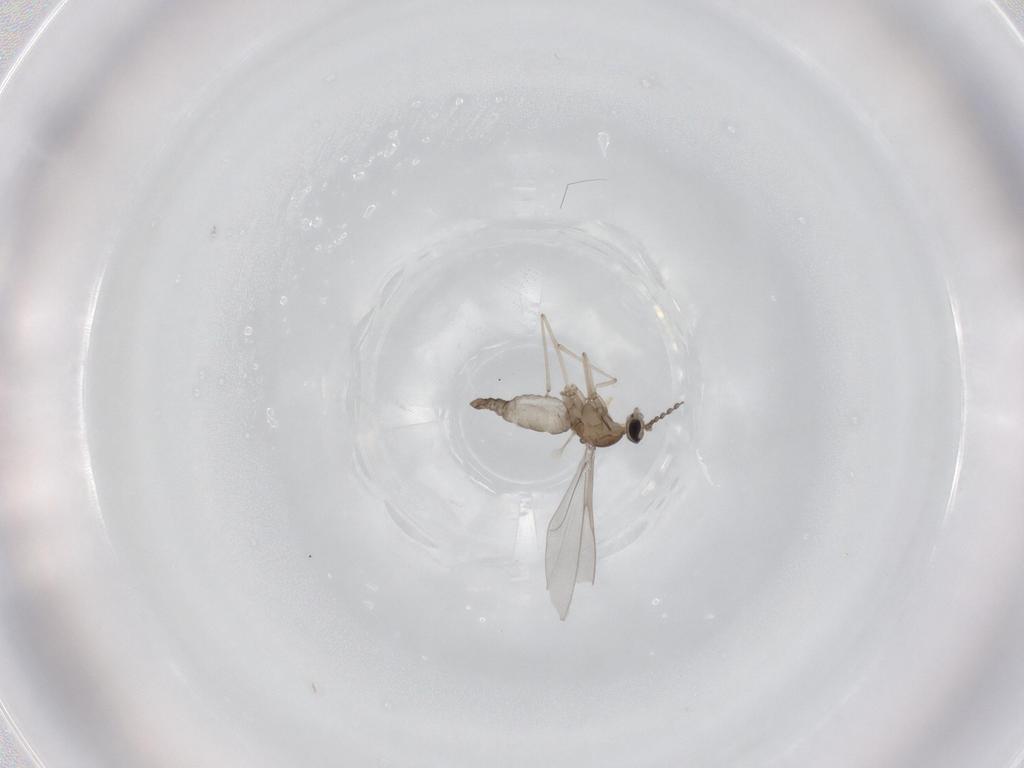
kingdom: Animalia
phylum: Arthropoda
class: Insecta
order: Diptera
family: Cecidomyiidae
